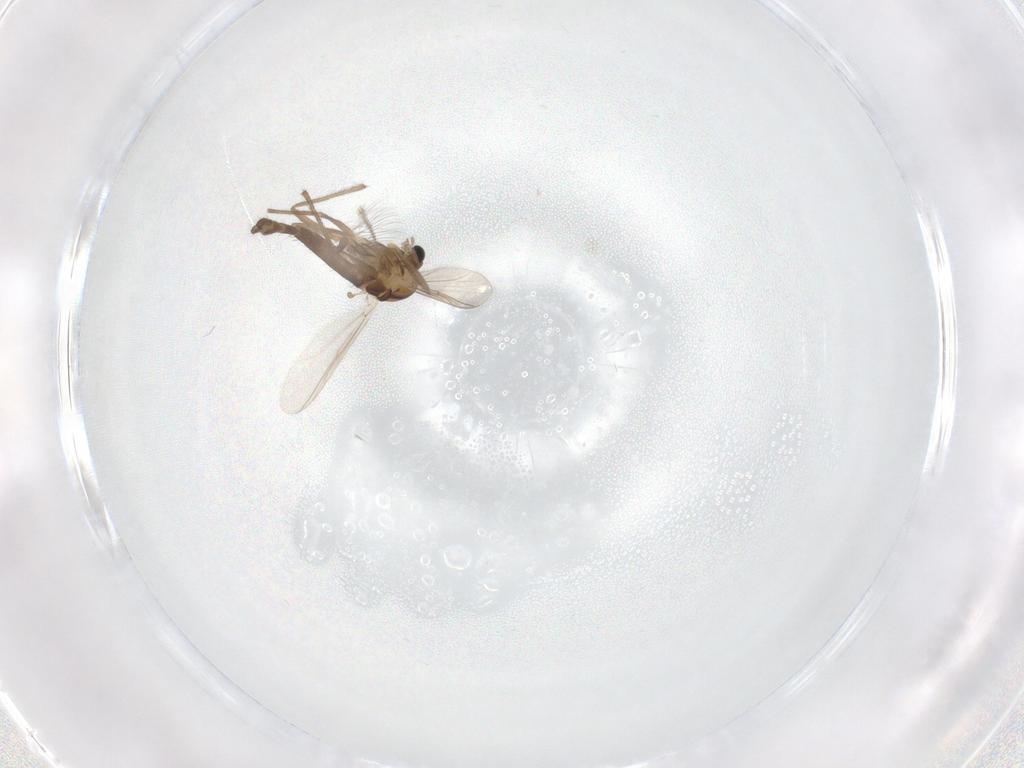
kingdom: Animalia
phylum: Arthropoda
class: Insecta
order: Diptera
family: Chironomidae
